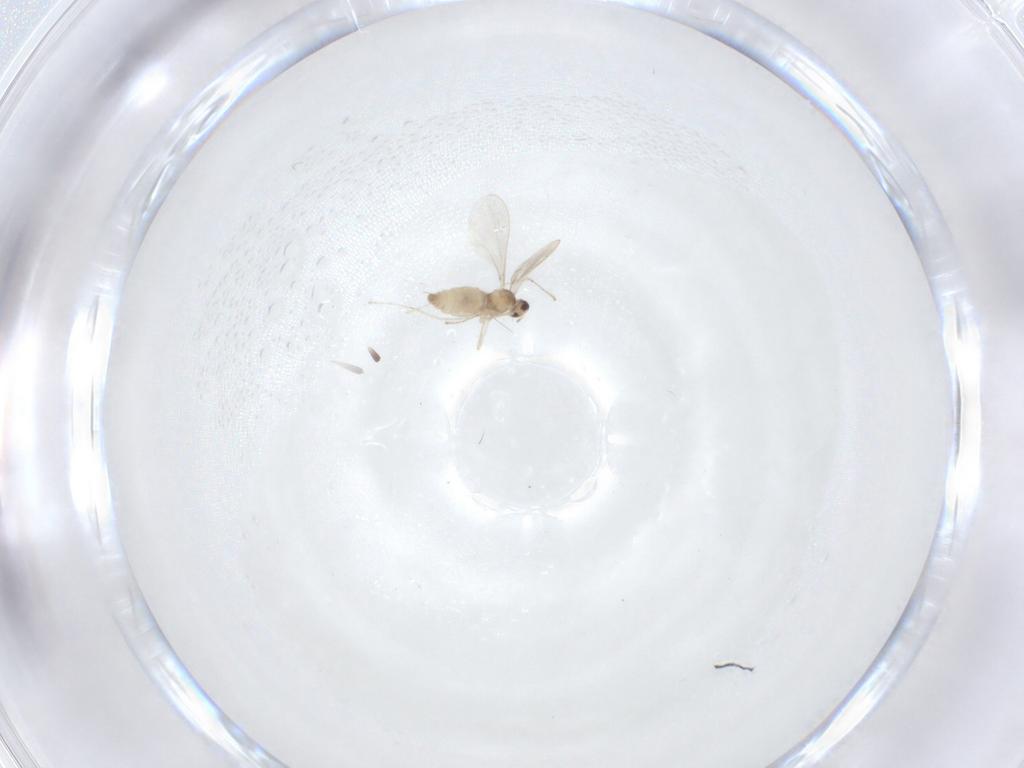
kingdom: Animalia
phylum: Arthropoda
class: Insecta
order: Diptera
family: Cecidomyiidae
